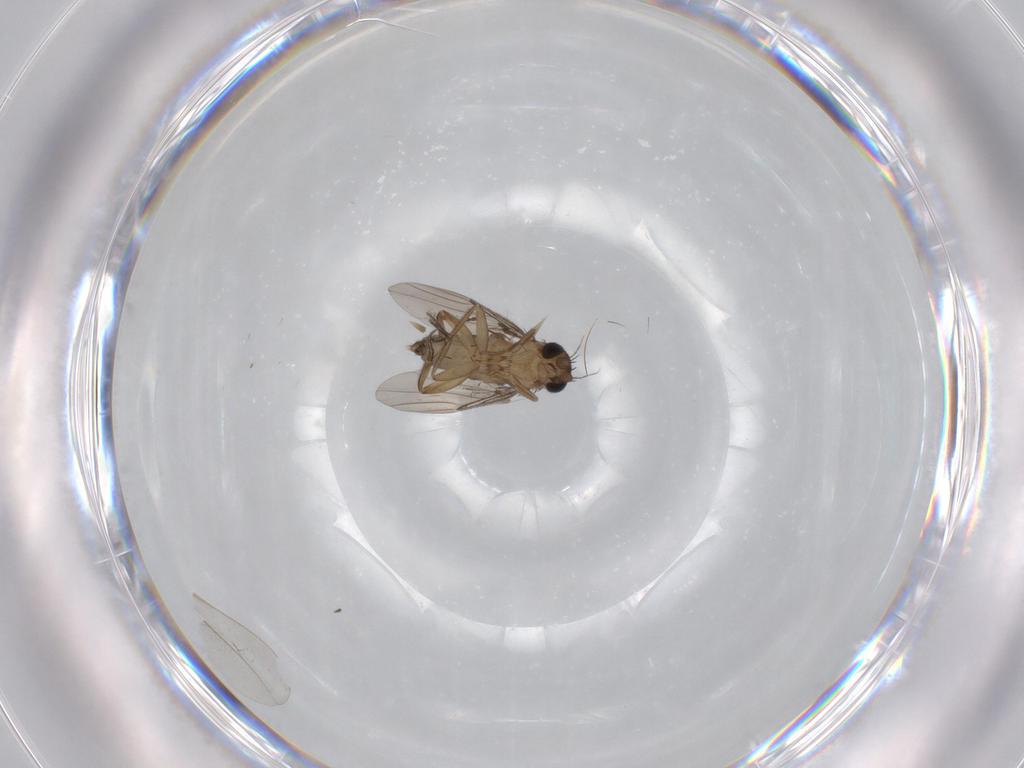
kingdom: Animalia
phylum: Arthropoda
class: Insecta
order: Diptera
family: Phoridae
